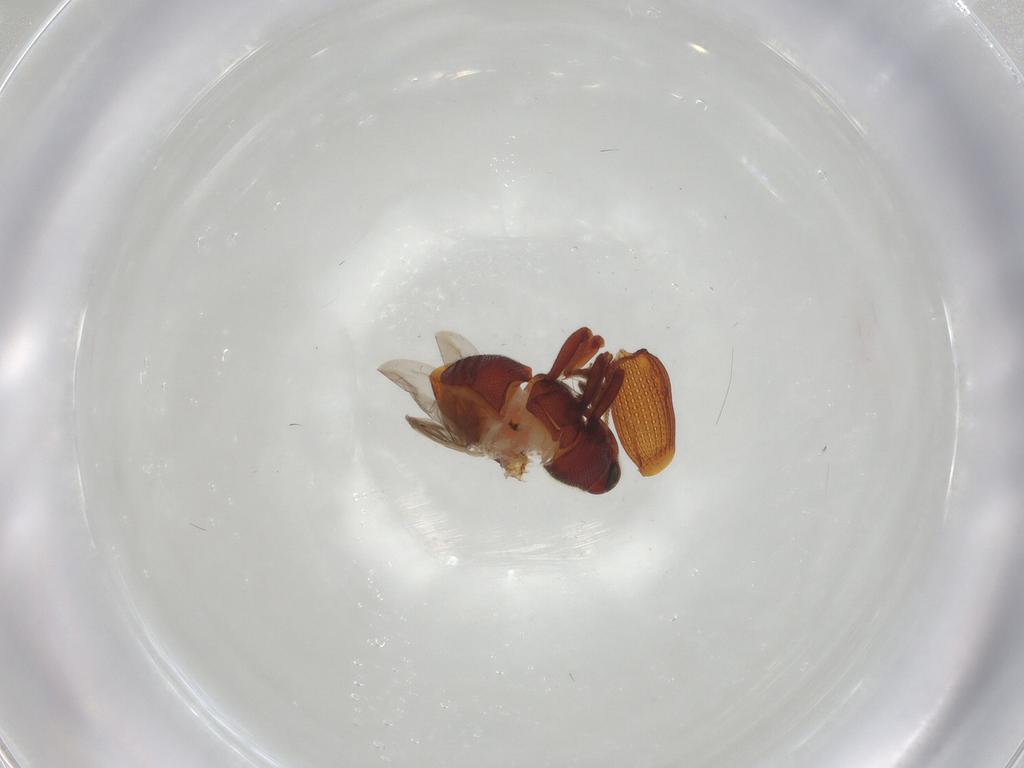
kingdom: Animalia
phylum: Arthropoda
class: Insecta
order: Coleoptera
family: Curculionidae
